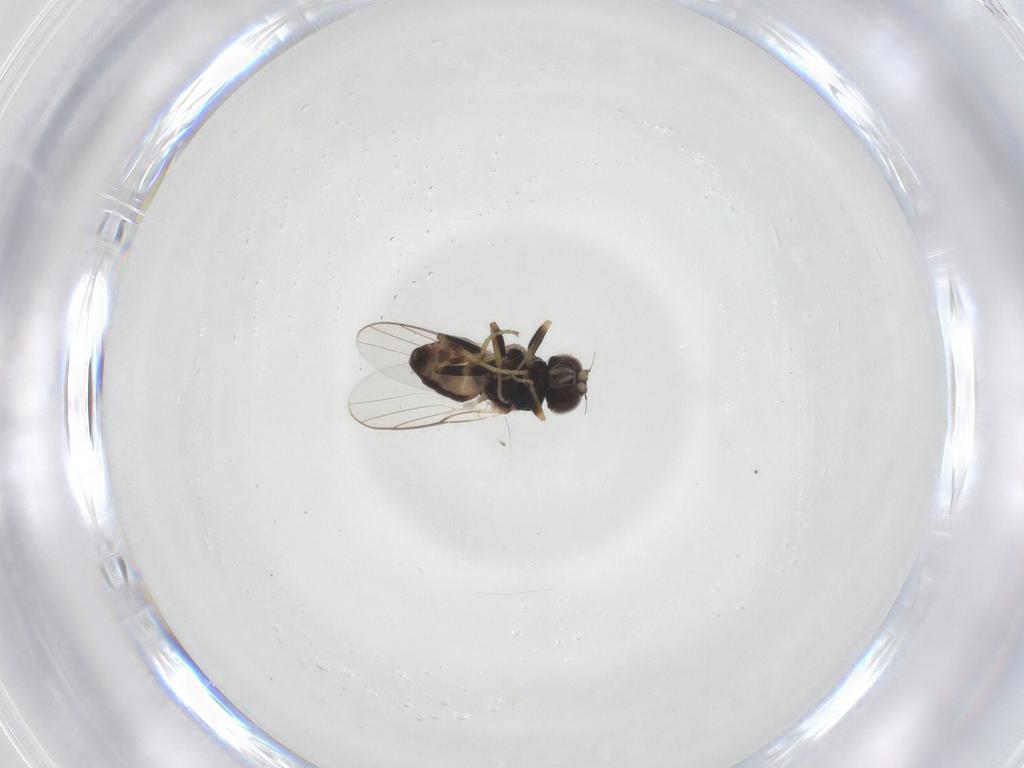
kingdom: Animalia
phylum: Arthropoda
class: Insecta
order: Diptera
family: Chloropidae
